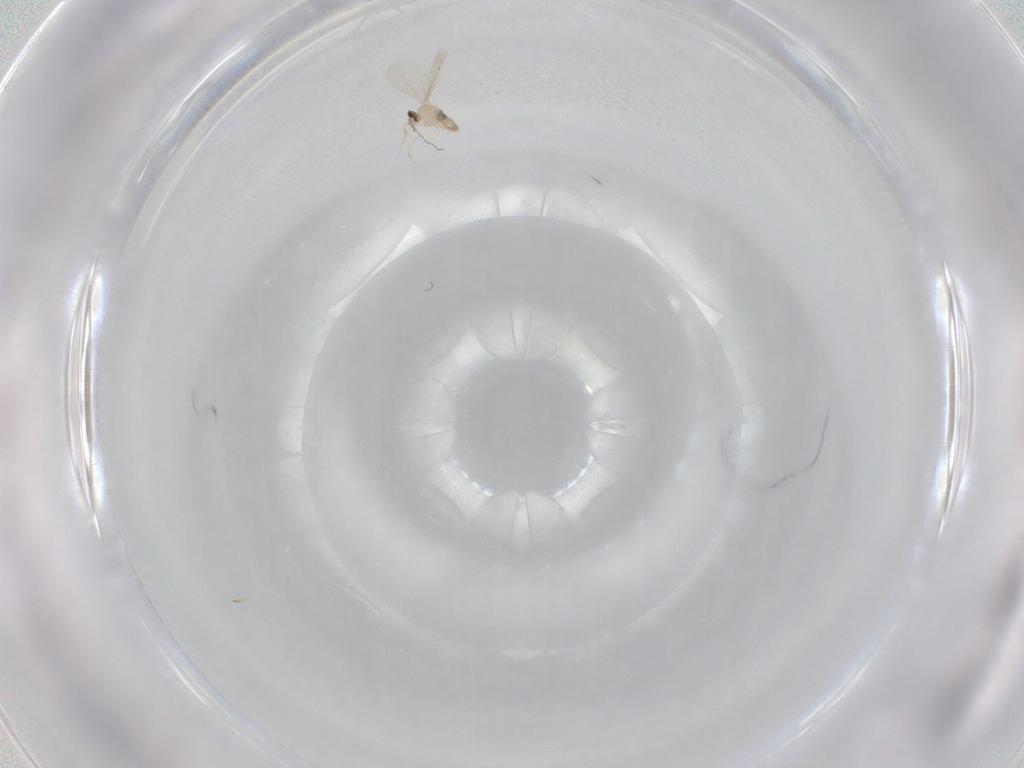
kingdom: Animalia
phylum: Arthropoda
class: Insecta
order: Diptera
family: Cecidomyiidae
